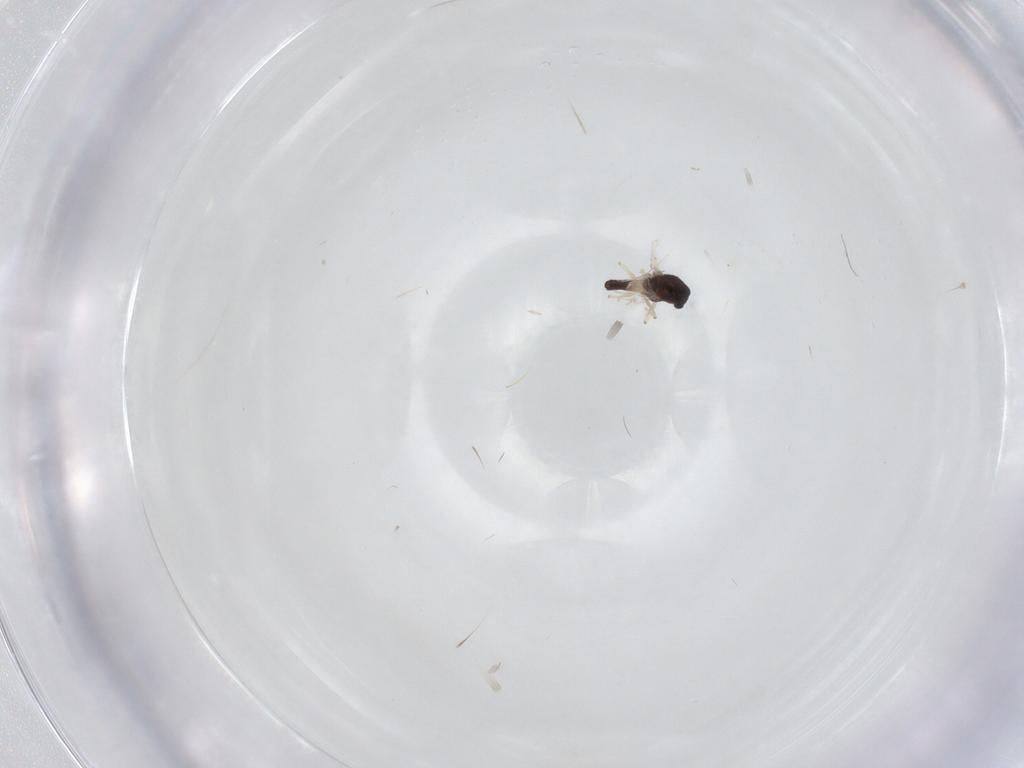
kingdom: Animalia
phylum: Arthropoda
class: Insecta
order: Diptera
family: Chironomidae
